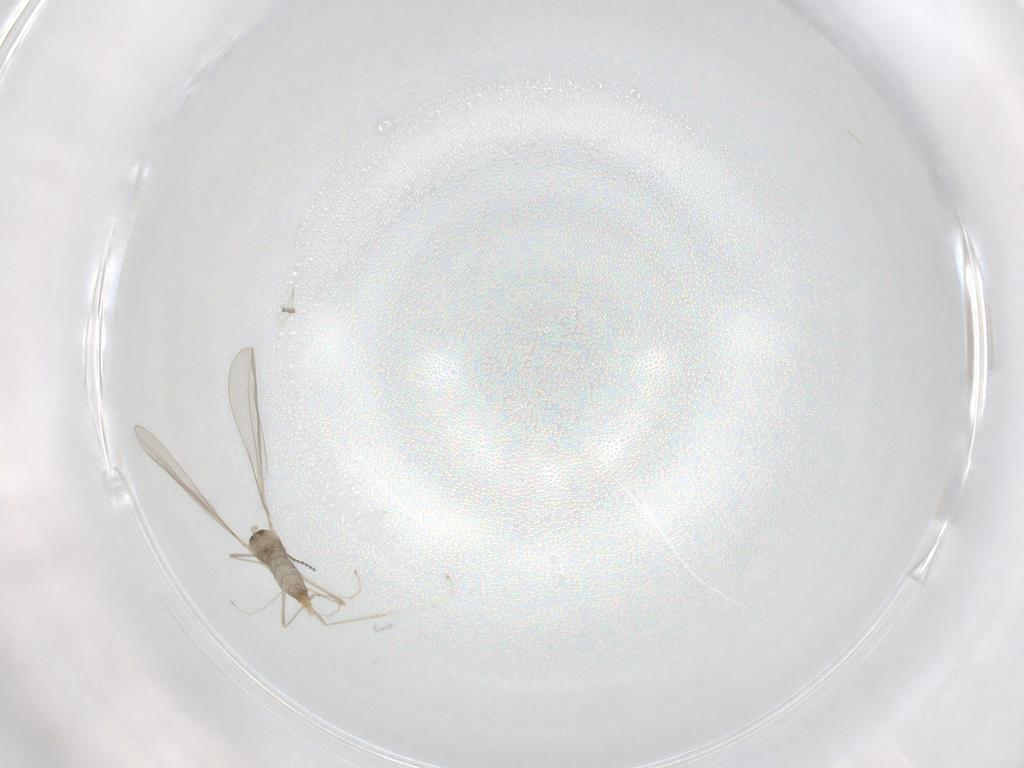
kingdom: Animalia
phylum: Arthropoda
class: Insecta
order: Diptera
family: Cecidomyiidae
